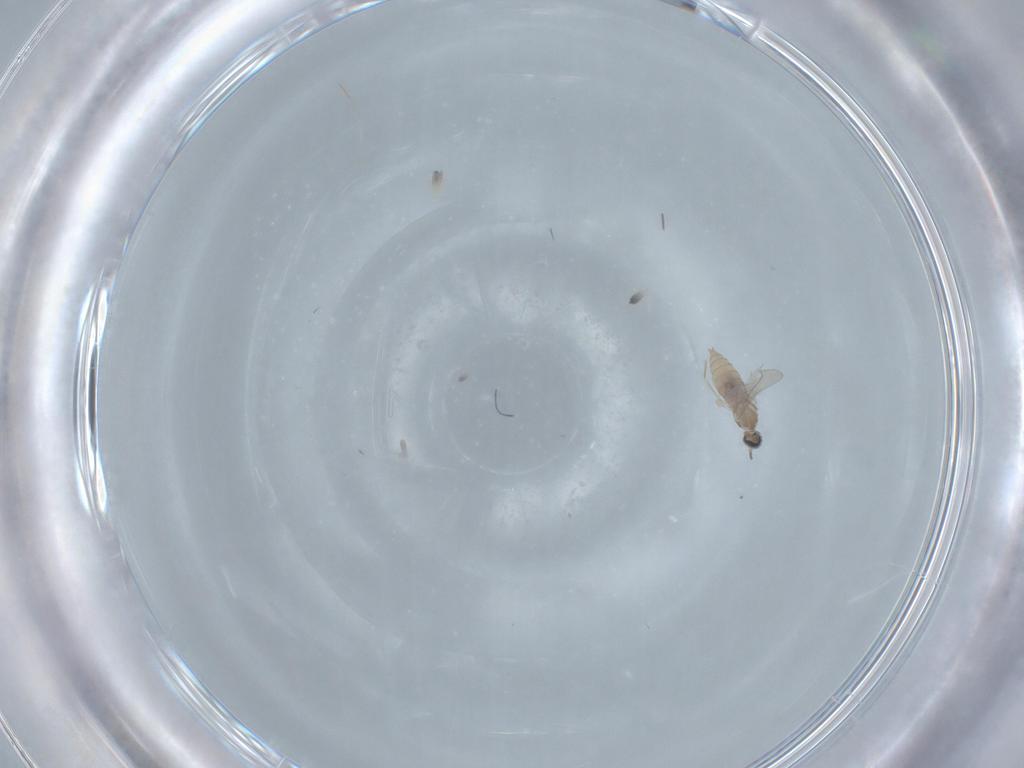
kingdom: Animalia
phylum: Arthropoda
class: Insecta
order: Diptera
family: Cecidomyiidae
